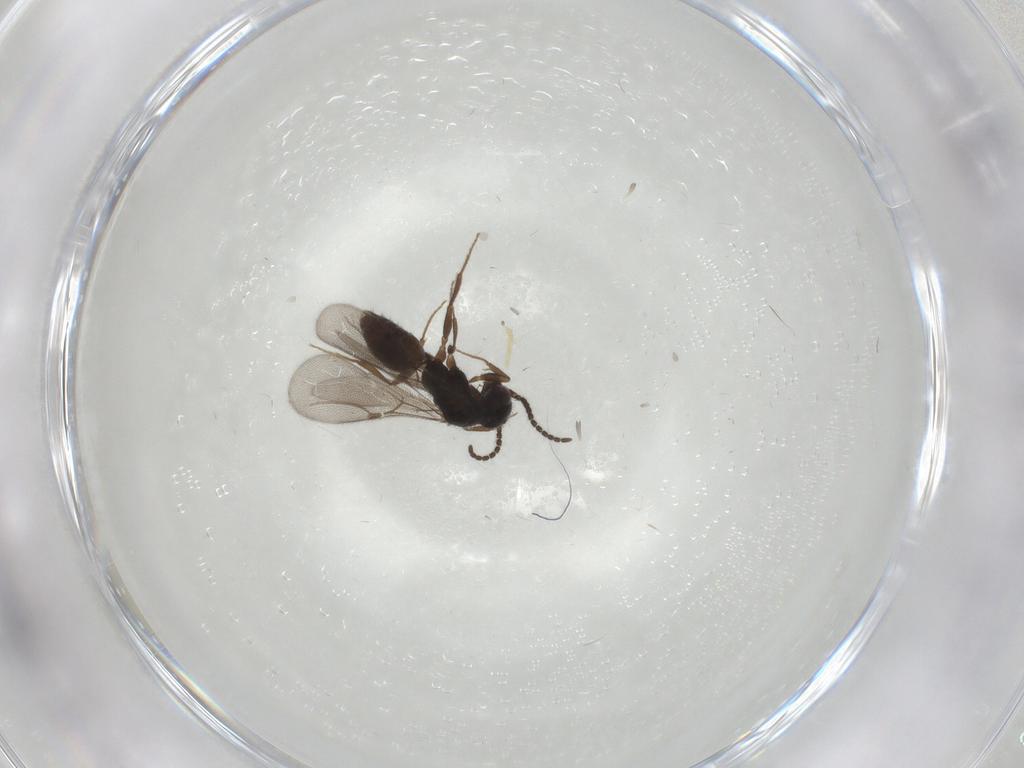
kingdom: Animalia
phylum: Arthropoda
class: Insecta
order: Hymenoptera
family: Bethylidae
